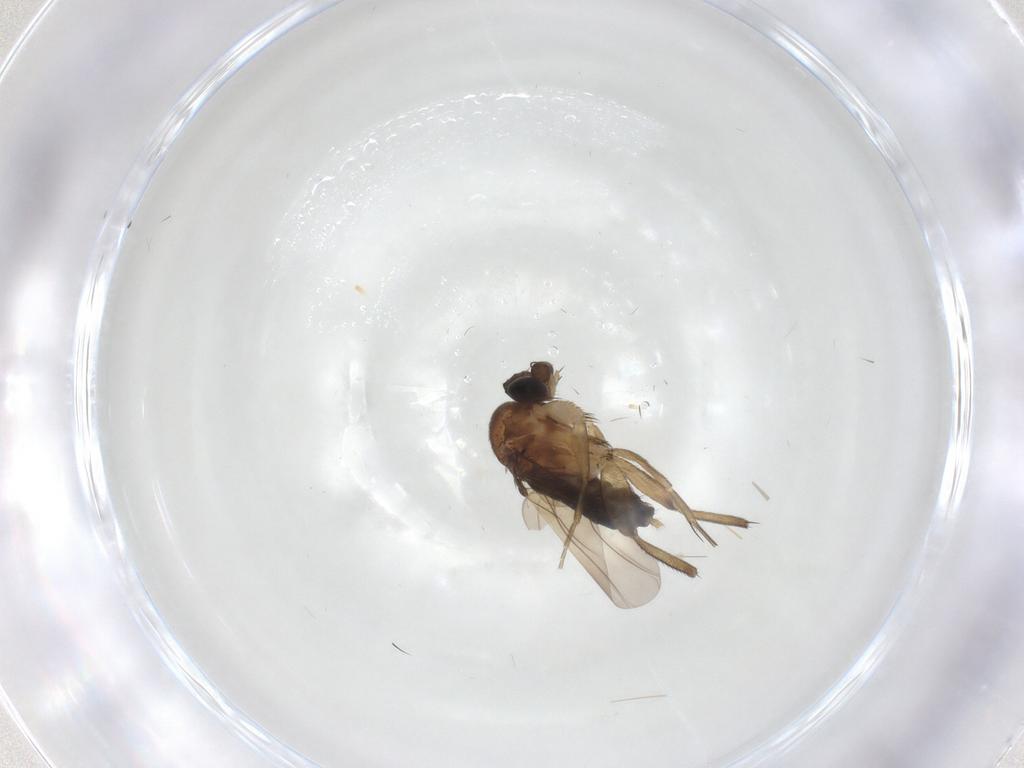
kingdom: Animalia
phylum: Arthropoda
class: Insecta
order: Diptera
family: Phoridae
